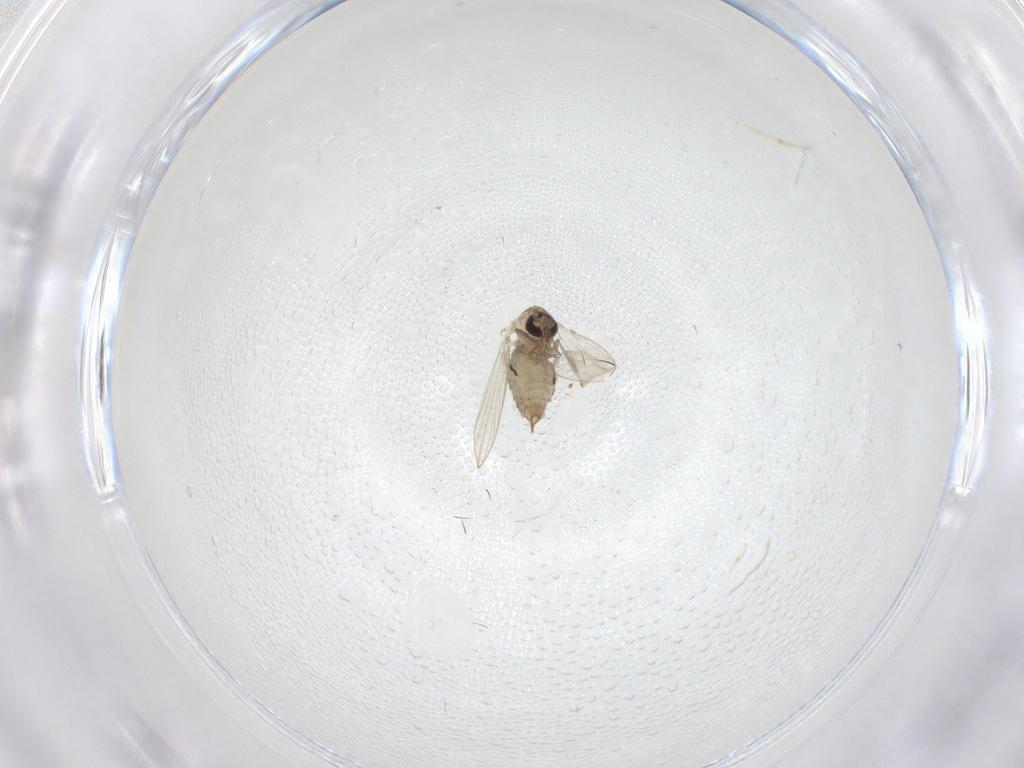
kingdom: Animalia
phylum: Arthropoda
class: Insecta
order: Diptera
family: Psychodidae
